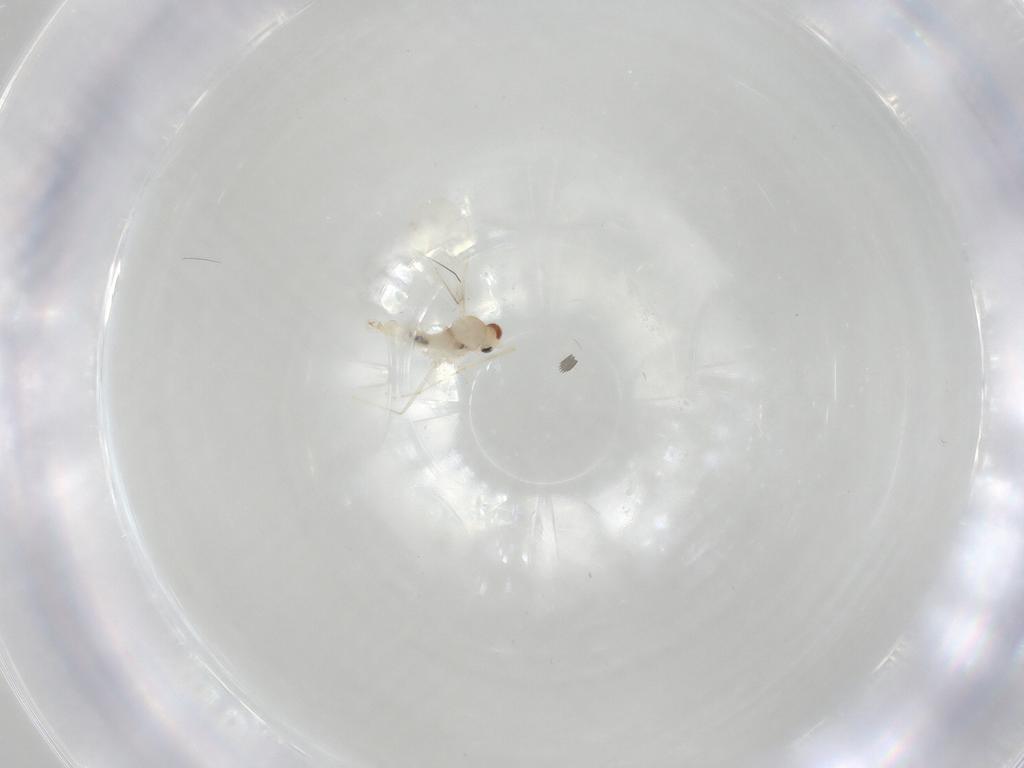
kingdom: Animalia
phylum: Arthropoda
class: Insecta
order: Diptera
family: Cecidomyiidae
